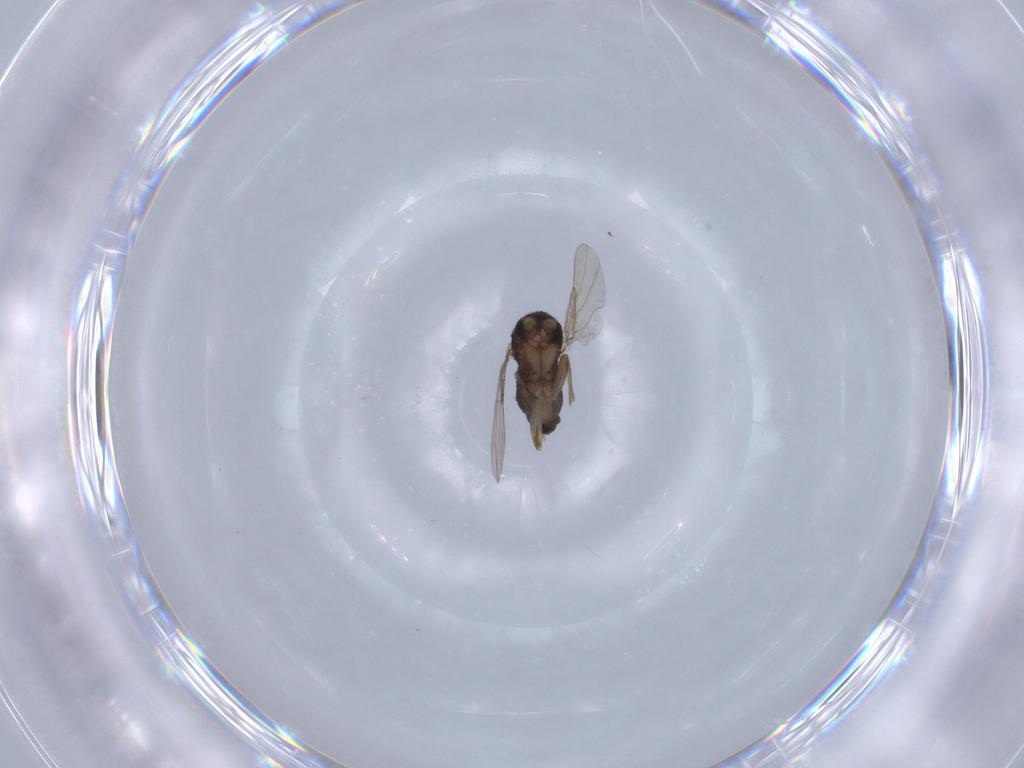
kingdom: Animalia
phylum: Arthropoda
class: Insecta
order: Diptera
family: Phoridae
